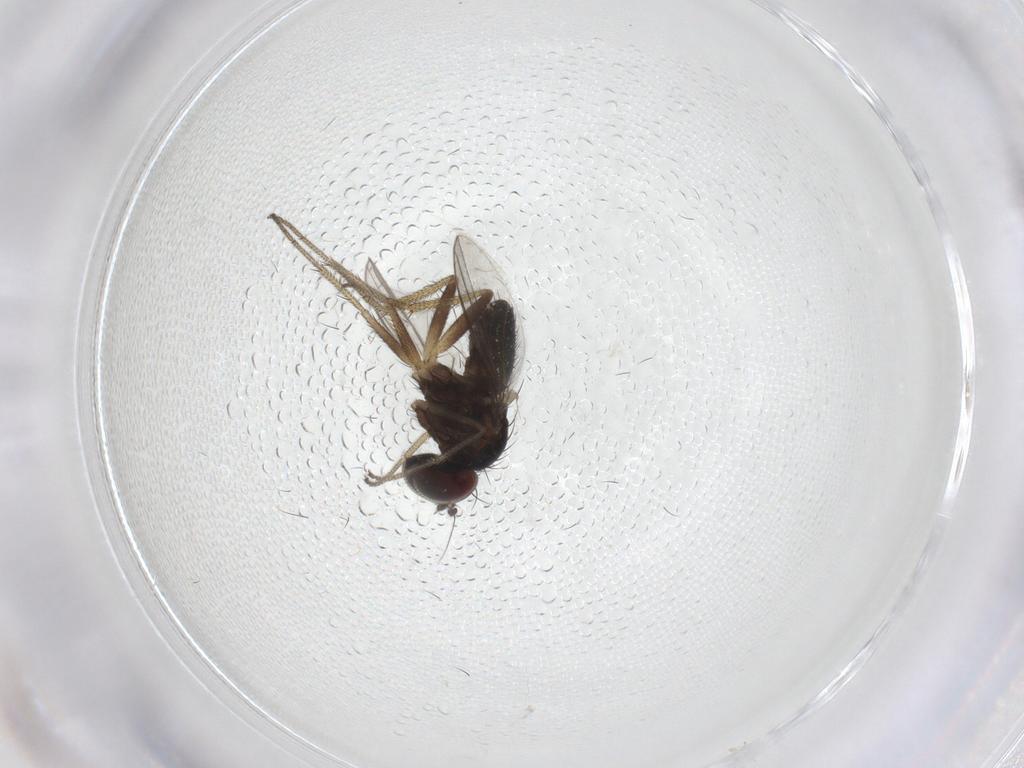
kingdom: Animalia
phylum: Arthropoda
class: Insecta
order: Diptera
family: Dolichopodidae
